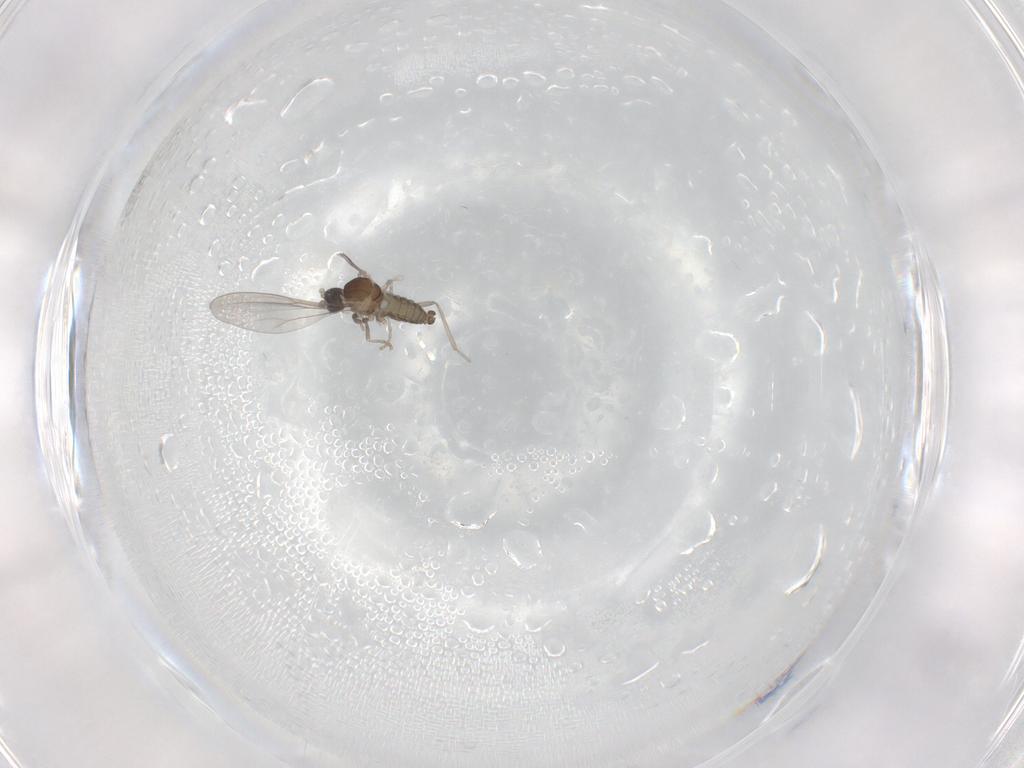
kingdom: Animalia
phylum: Arthropoda
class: Insecta
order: Diptera
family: Cecidomyiidae
